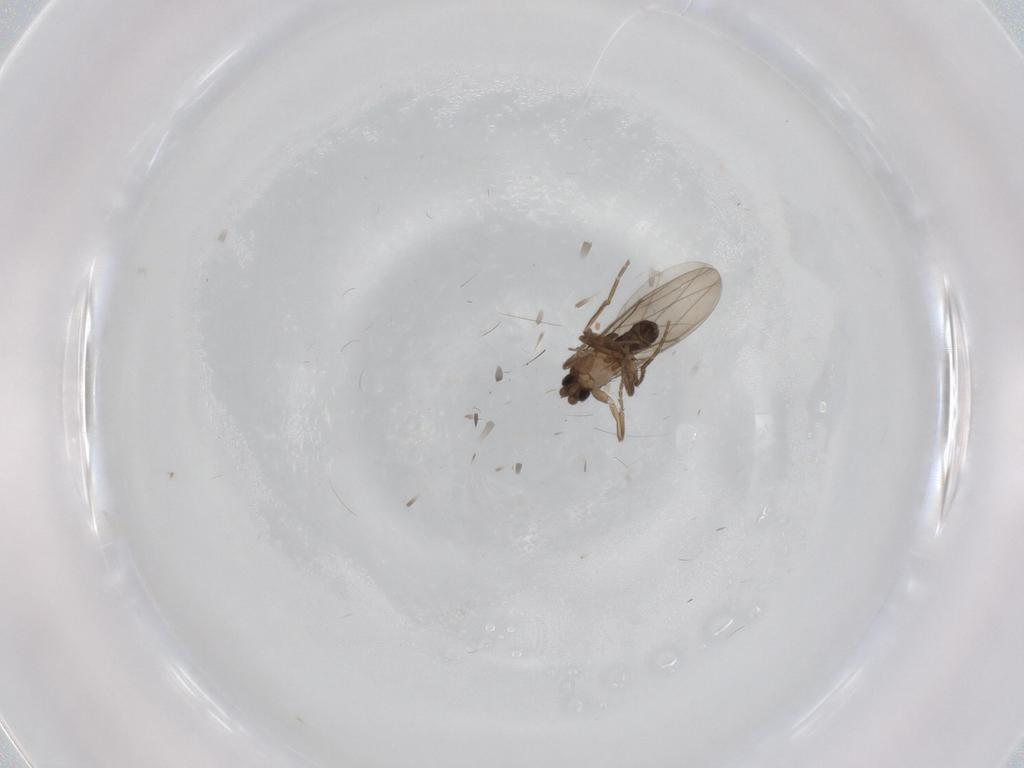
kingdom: Animalia
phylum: Arthropoda
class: Insecta
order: Diptera
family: Phoridae
